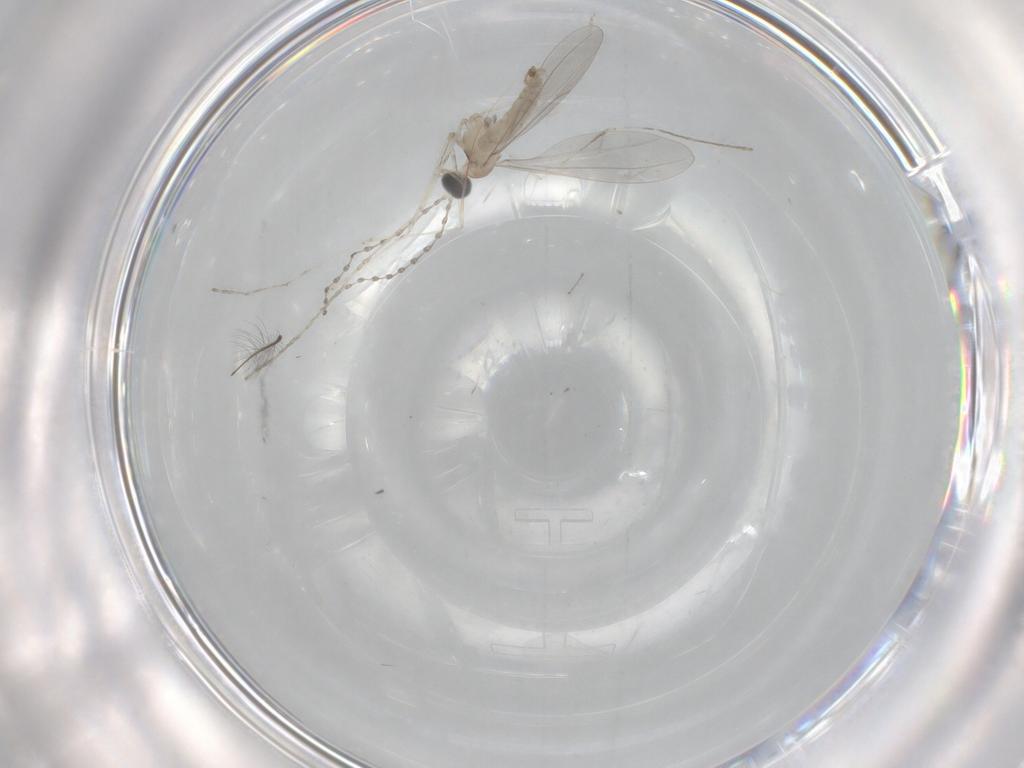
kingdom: Animalia
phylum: Arthropoda
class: Insecta
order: Diptera
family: Cecidomyiidae
